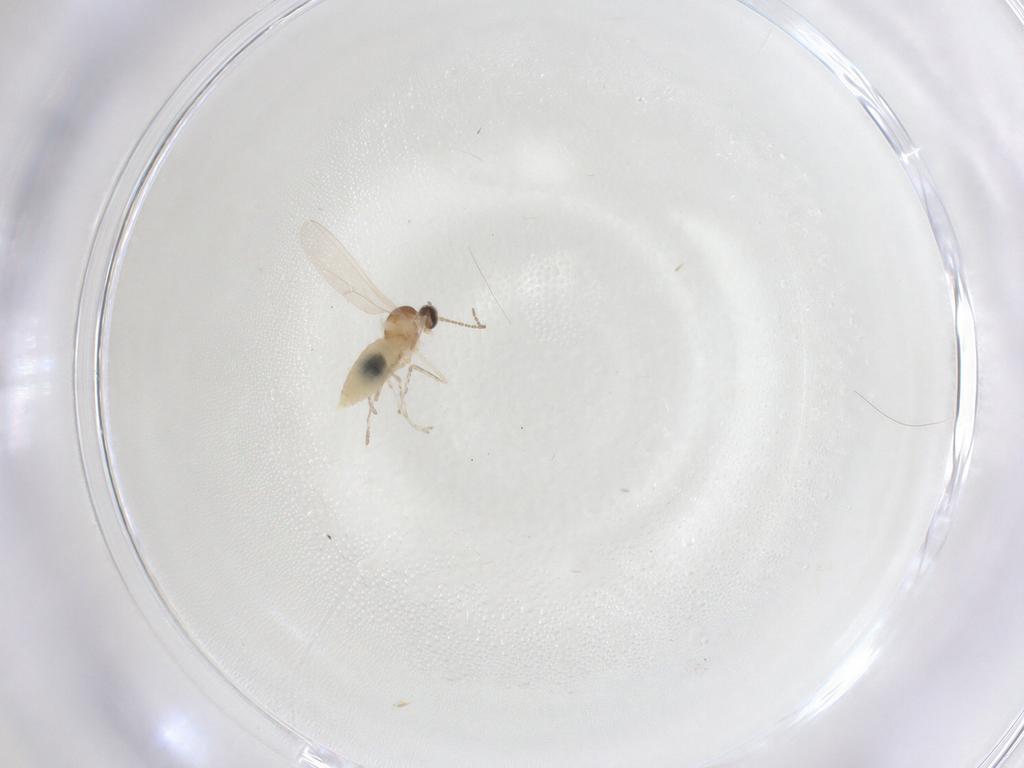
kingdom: Animalia
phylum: Arthropoda
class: Insecta
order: Diptera
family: Cecidomyiidae
